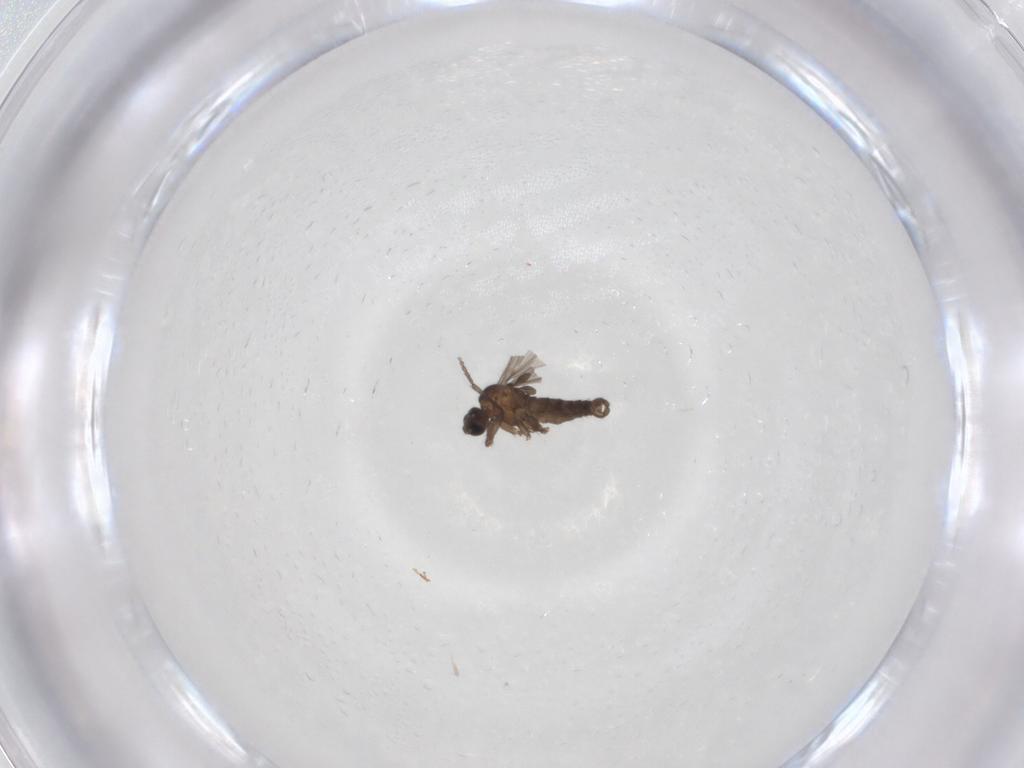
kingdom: Animalia
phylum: Arthropoda
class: Insecta
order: Diptera
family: Sciaridae
